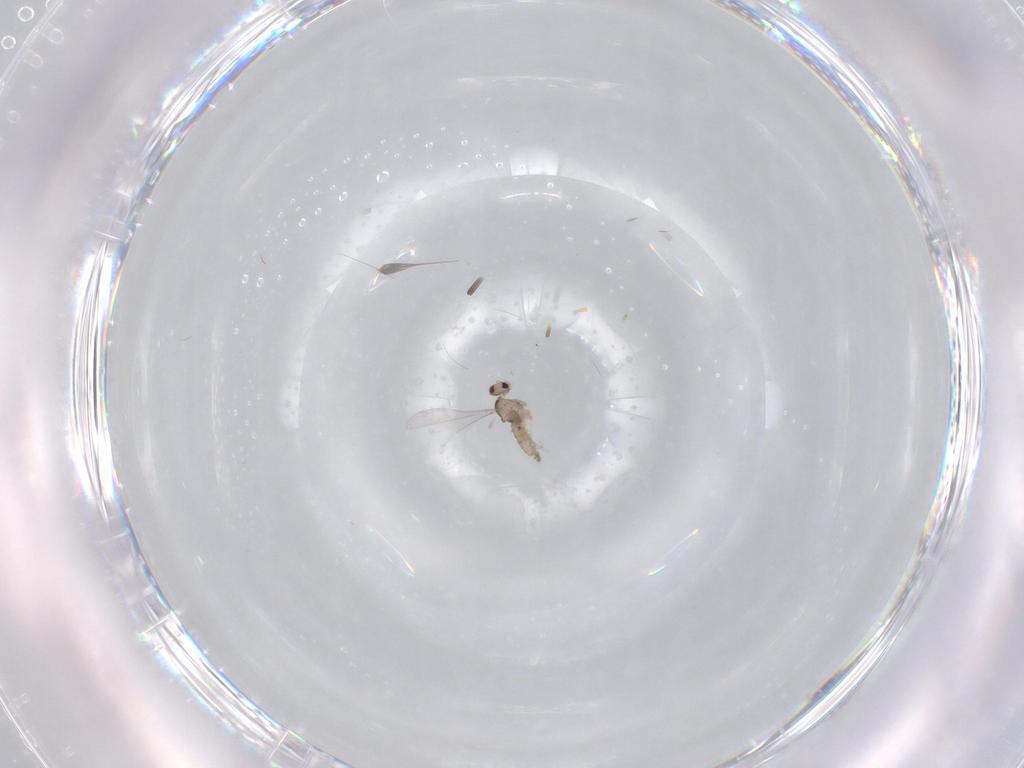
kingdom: Animalia
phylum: Arthropoda
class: Insecta
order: Diptera
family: Cecidomyiidae
